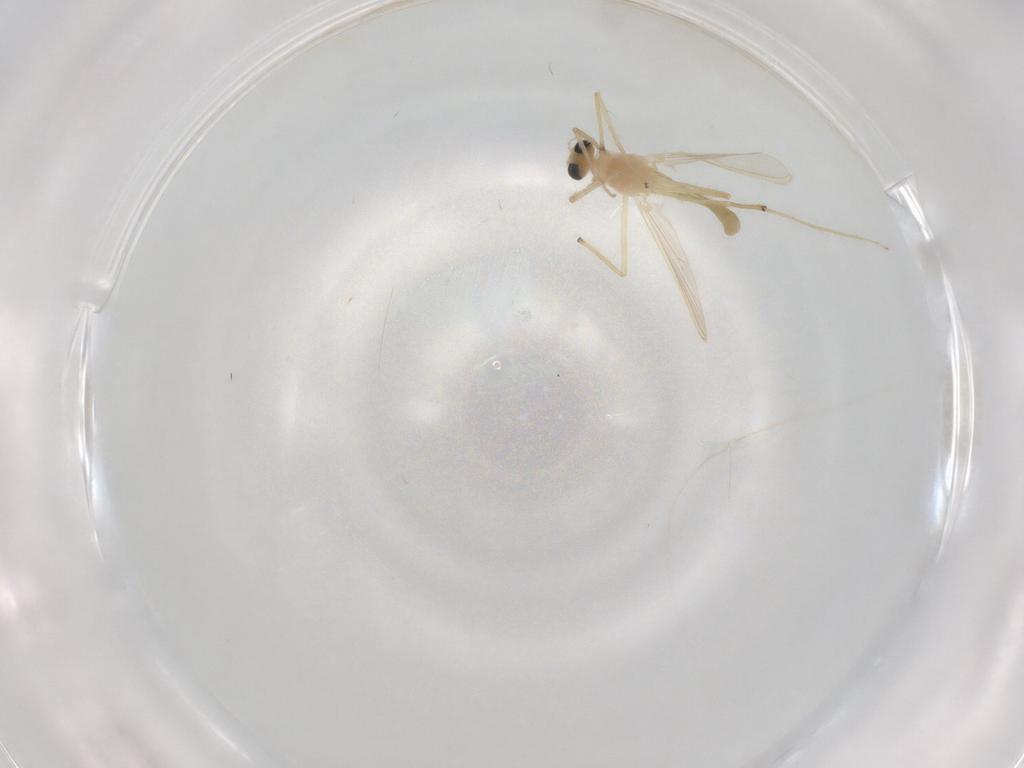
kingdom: Animalia
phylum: Arthropoda
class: Insecta
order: Diptera
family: Chironomidae
